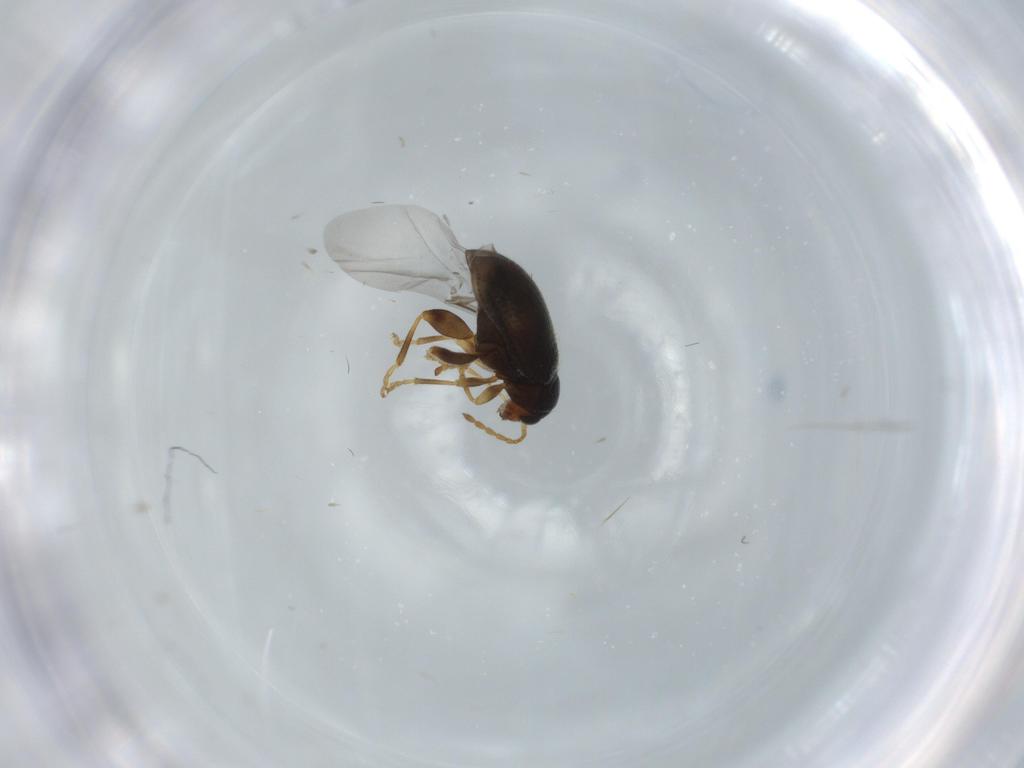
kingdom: Animalia
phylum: Arthropoda
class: Insecta
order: Coleoptera
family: Chrysomelidae
